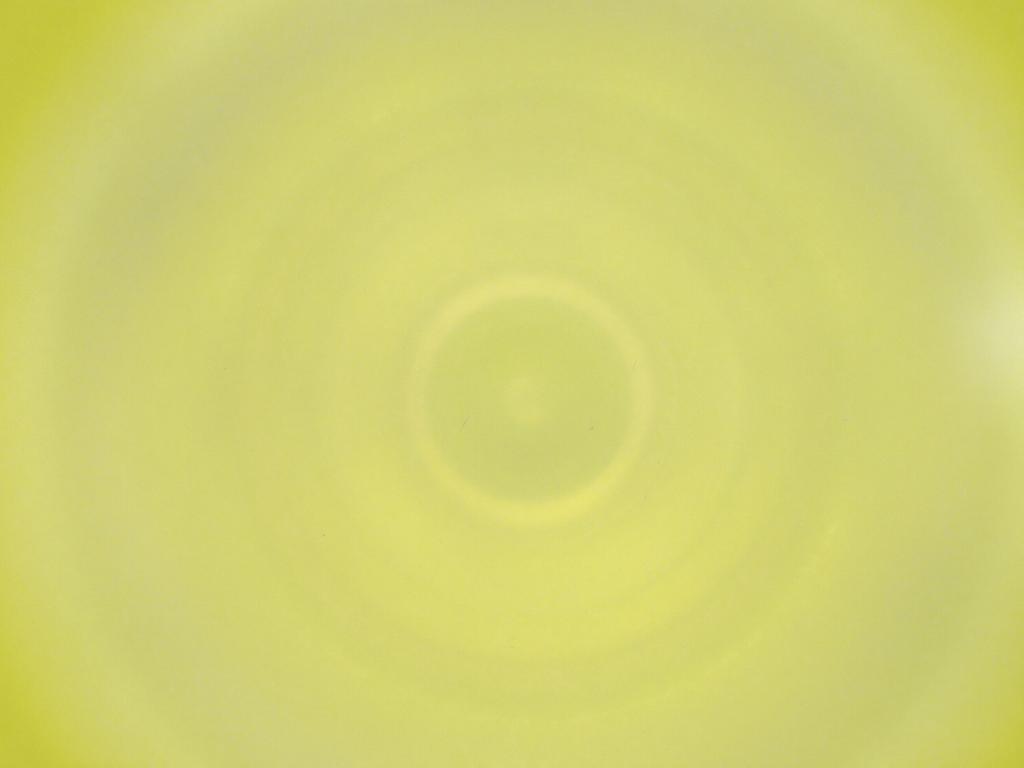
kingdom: Animalia
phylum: Arthropoda
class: Insecta
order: Diptera
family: Cecidomyiidae
